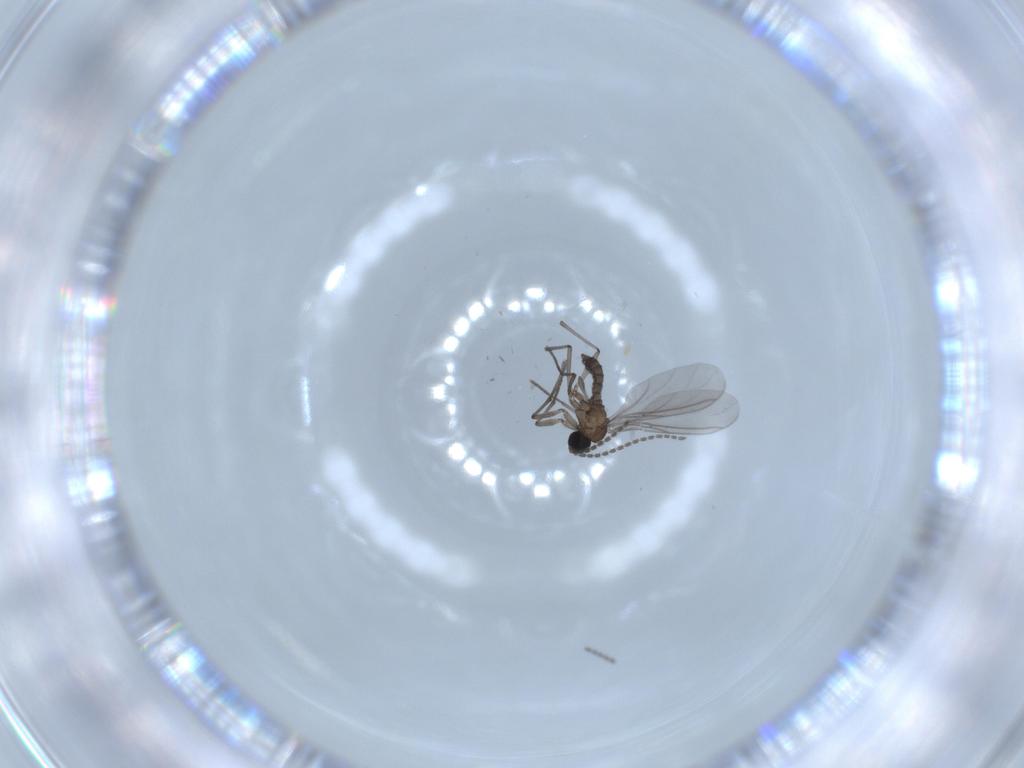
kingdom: Animalia
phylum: Arthropoda
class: Insecta
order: Diptera
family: Sciaridae
